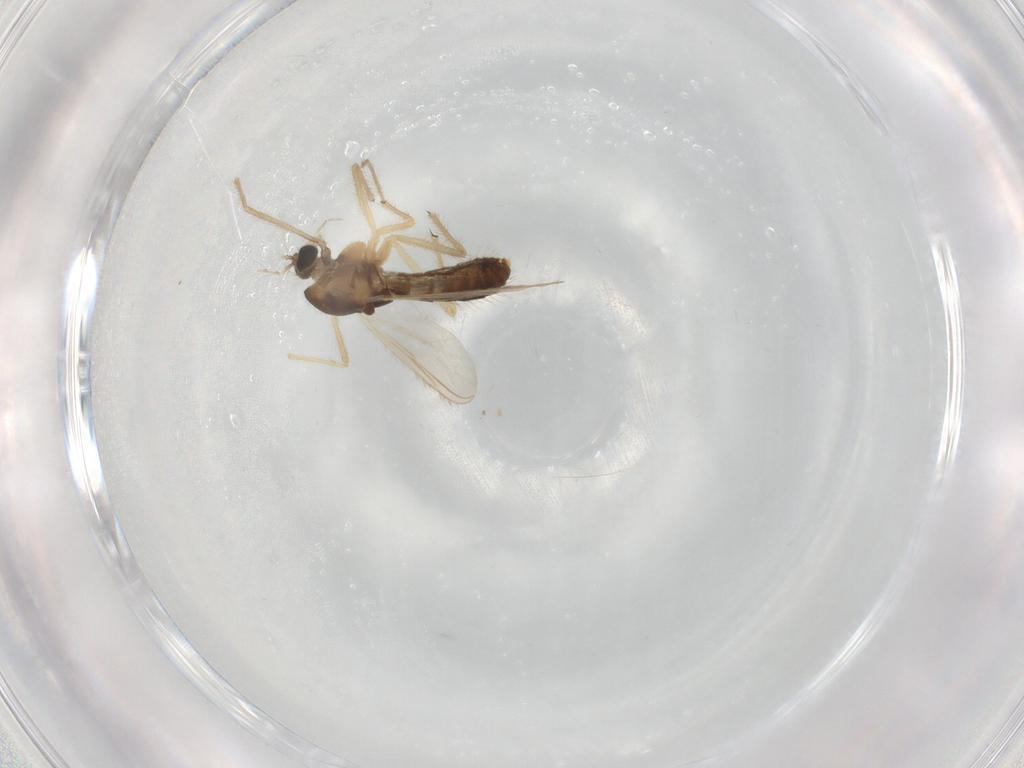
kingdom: Animalia
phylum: Arthropoda
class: Insecta
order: Diptera
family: Chironomidae
